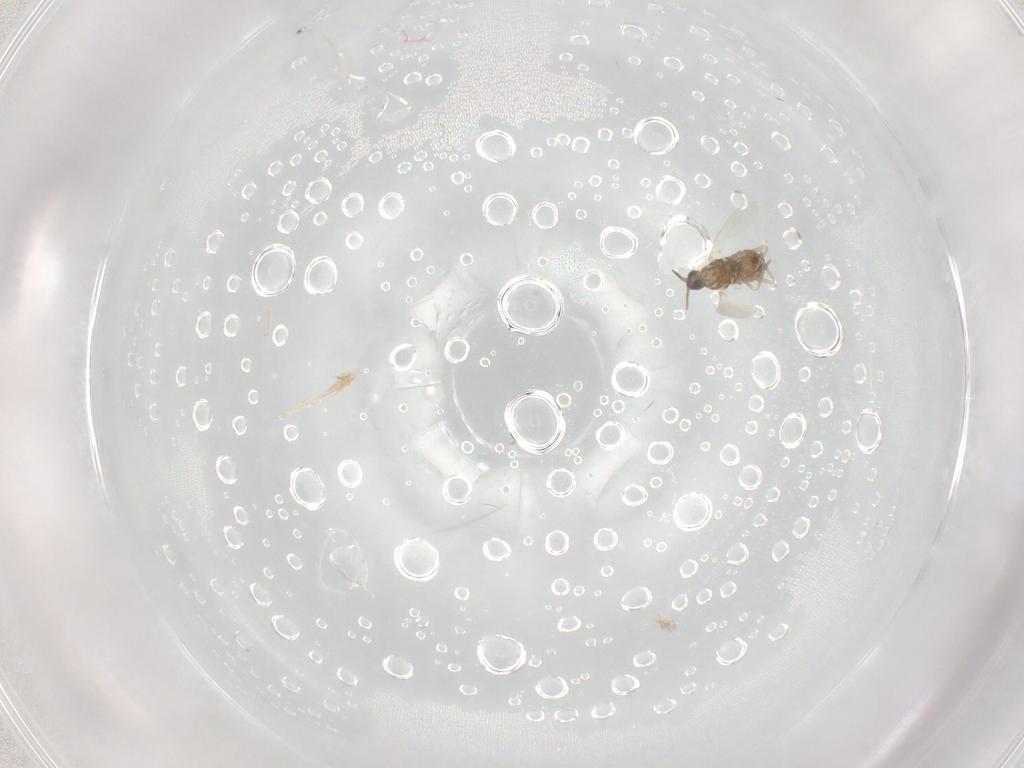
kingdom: Animalia
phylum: Arthropoda
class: Insecta
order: Diptera
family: Cecidomyiidae
